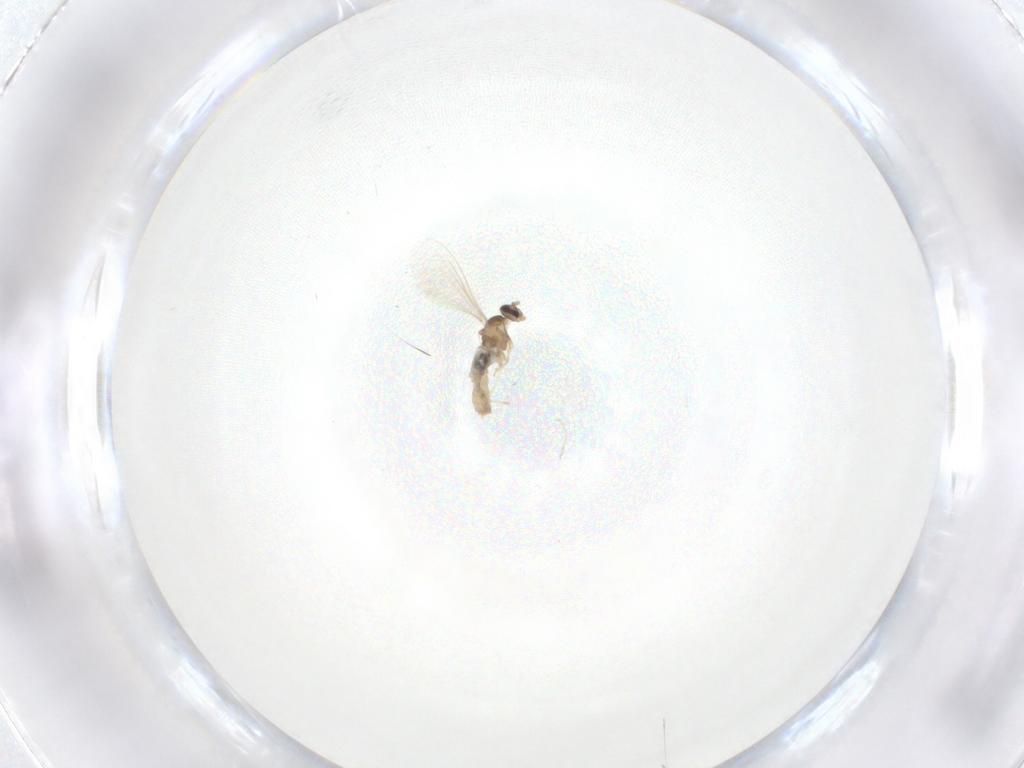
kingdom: Animalia
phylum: Arthropoda
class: Insecta
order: Diptera
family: Cecidomyiidae
